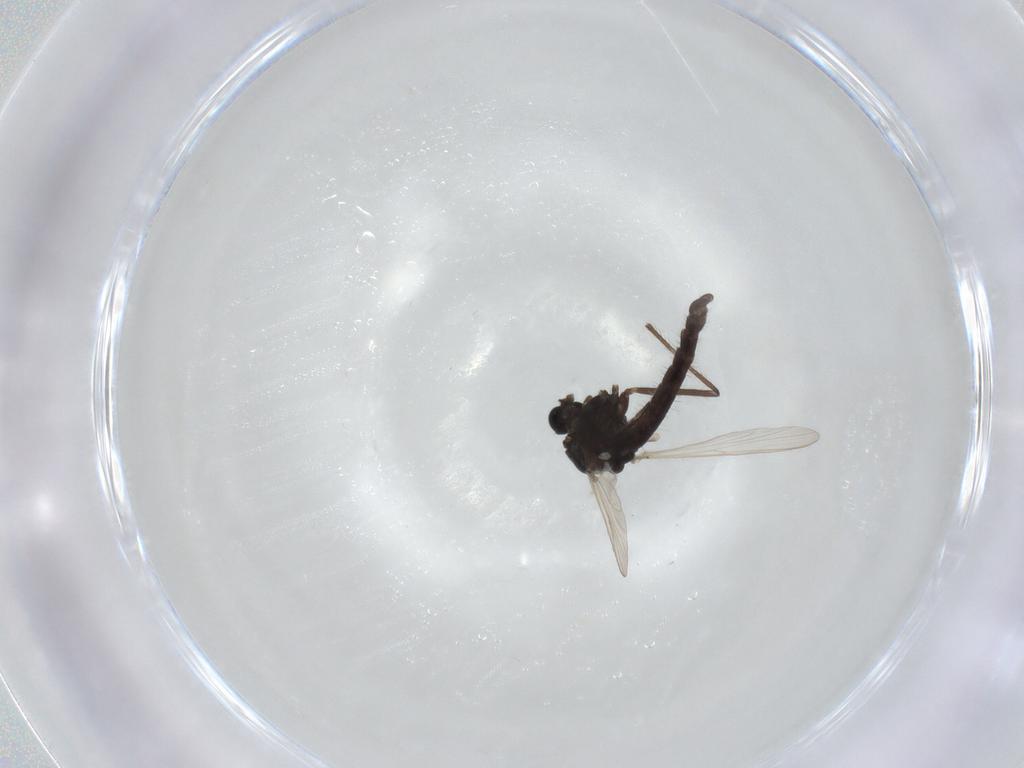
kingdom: Animalia
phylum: Arthropoda
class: Insecta
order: Diptera
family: Chironomidae
